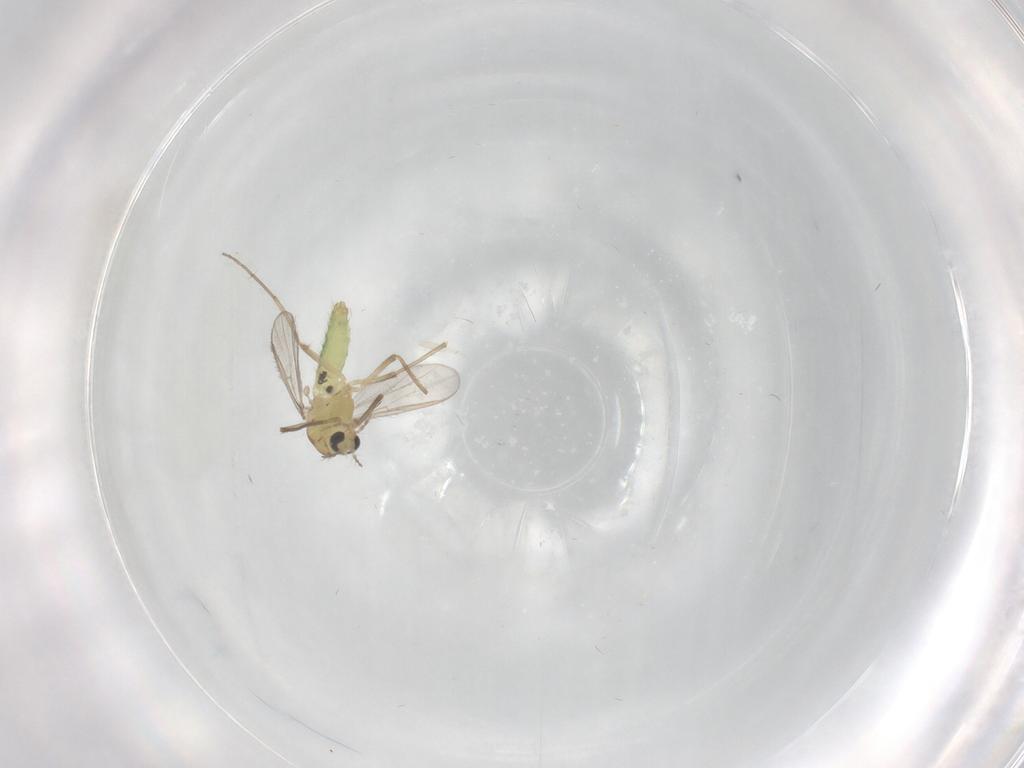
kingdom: Animalia
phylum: Arthropoda
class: Insecta
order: Diptera
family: Chironomidae
